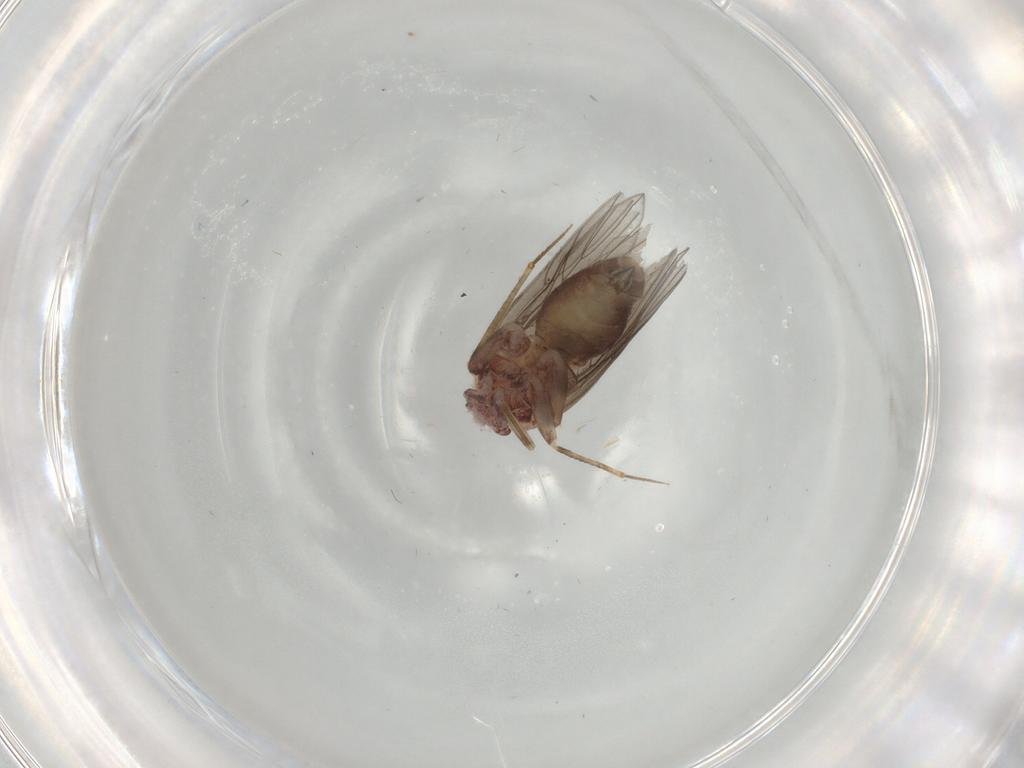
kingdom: Animalia
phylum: Arthropoda
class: Insecta
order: Psocodea
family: Lepidopsocidae
